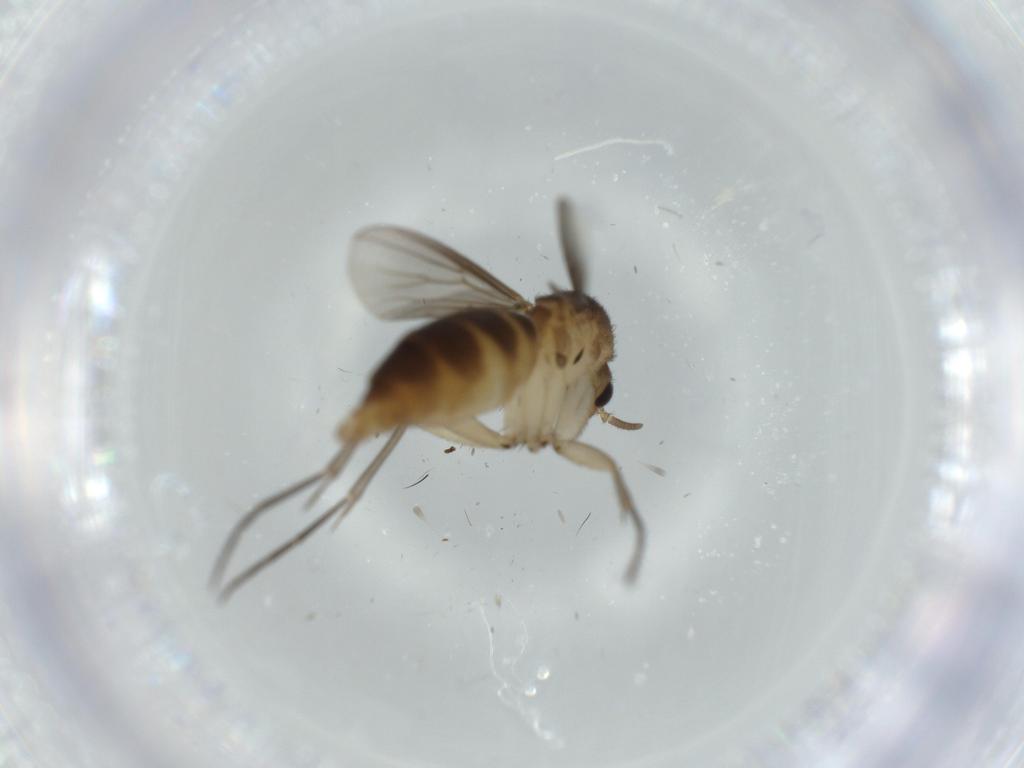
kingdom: Animalia
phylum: Arthropoda
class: Insecta
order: Diptera
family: Mycetophilidae
